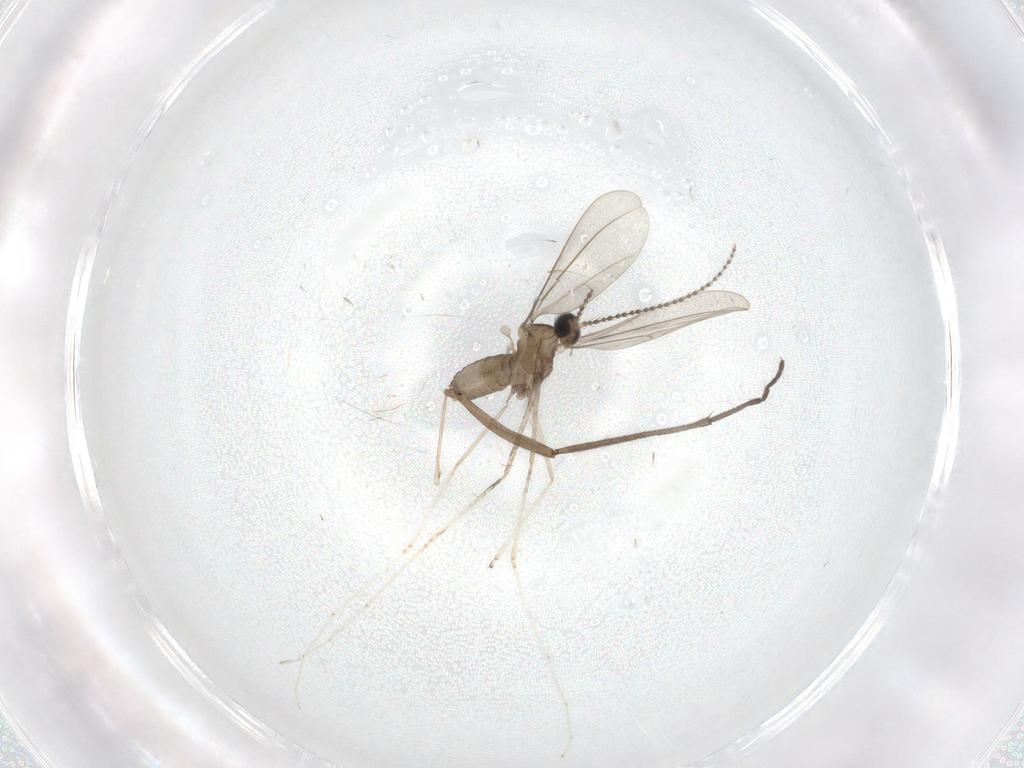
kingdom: Animalia
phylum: Arthropoda
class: Insecta
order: Diptera
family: Cecidomyiidae
